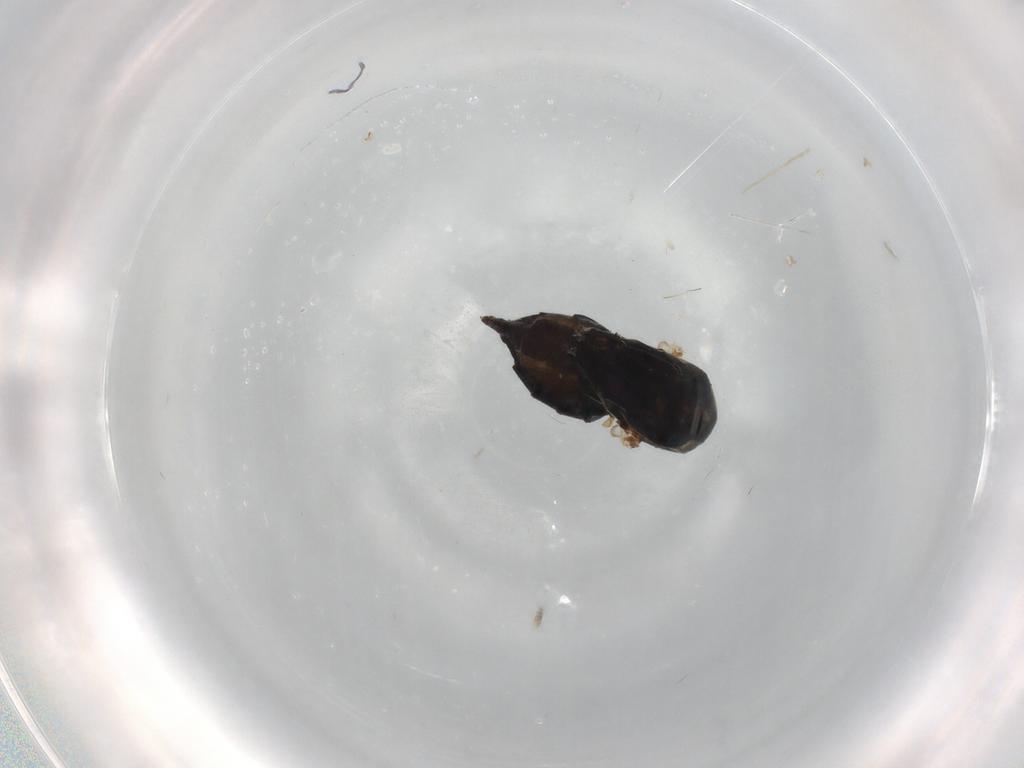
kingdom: Animalia
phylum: Arthropoda
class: Insecta
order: Diptera
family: Dolichopodidae
